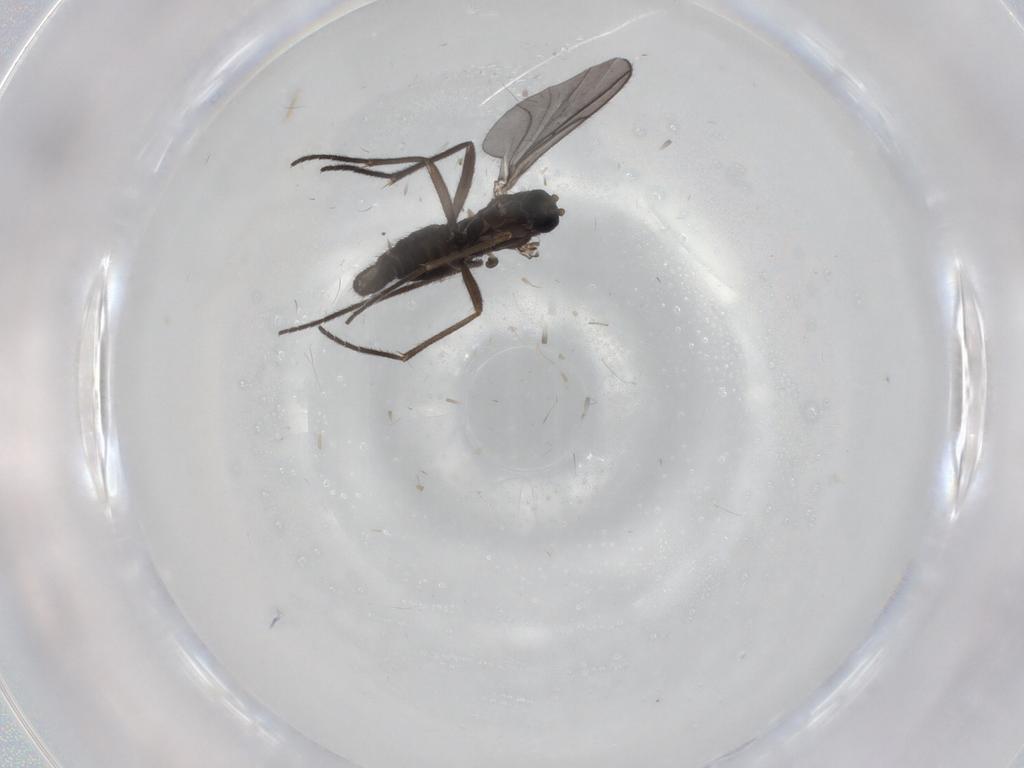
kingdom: Animalia
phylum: Arthropoda
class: Insecta
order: Diptera
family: Sciaridae
